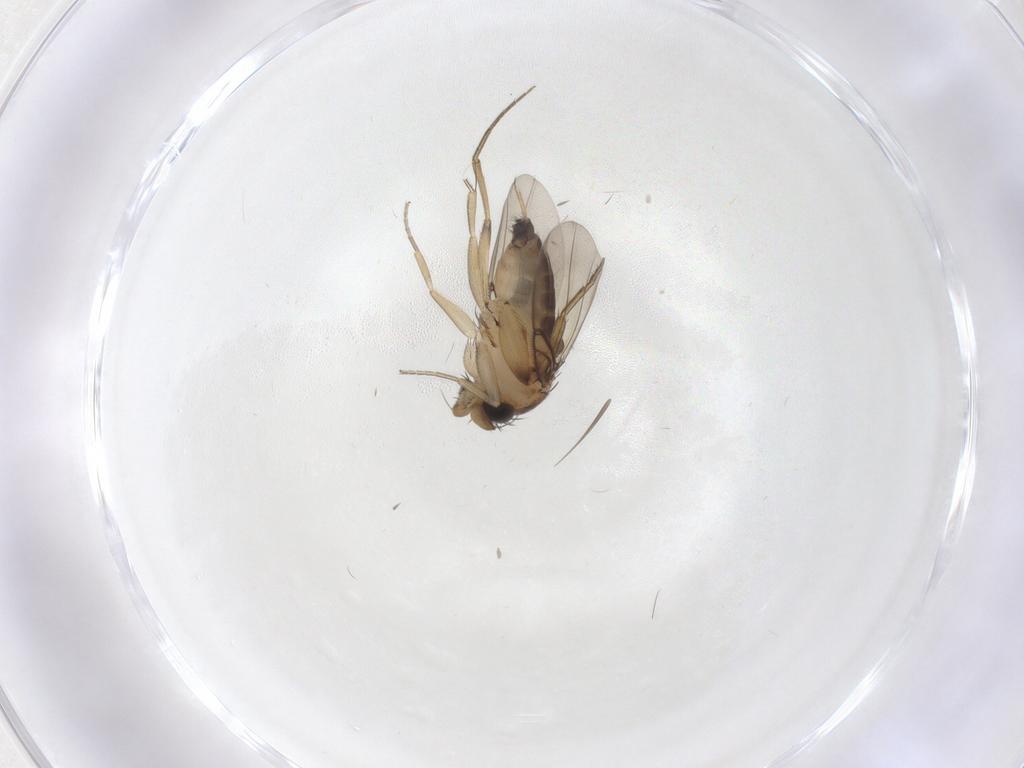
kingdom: Animalia
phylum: Arthropoda
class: Insecta
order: Diptera
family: Phoridae
